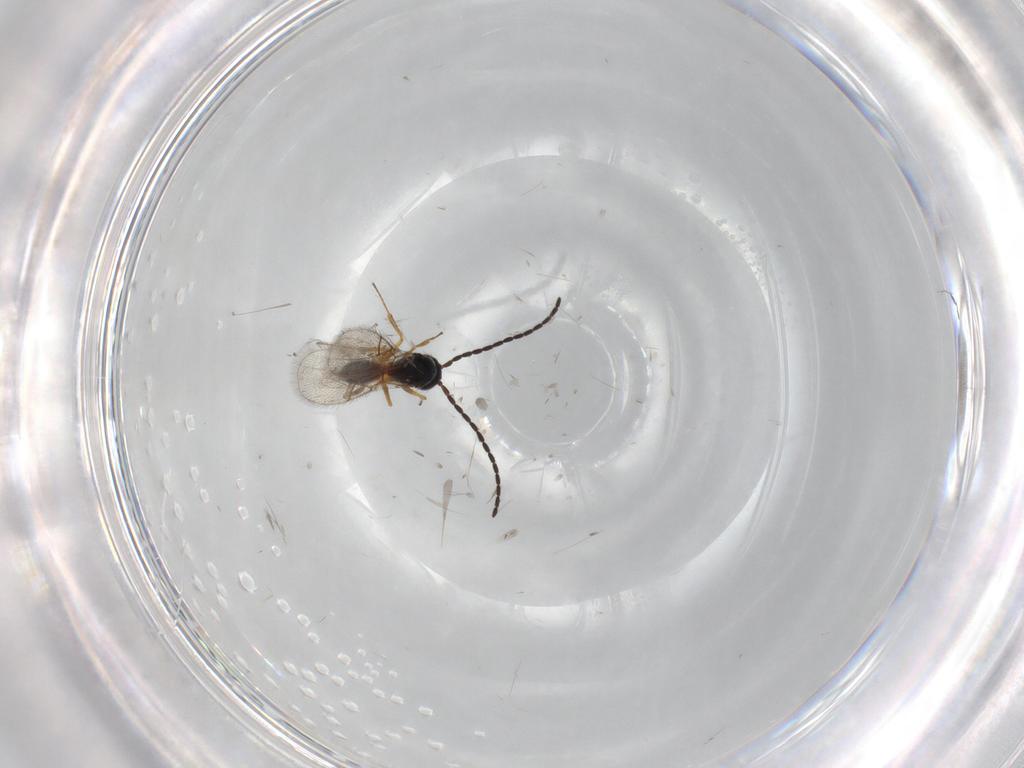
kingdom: Animalia
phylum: Arthropoda
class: Insecta
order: Hymenoptera
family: Figitidae
